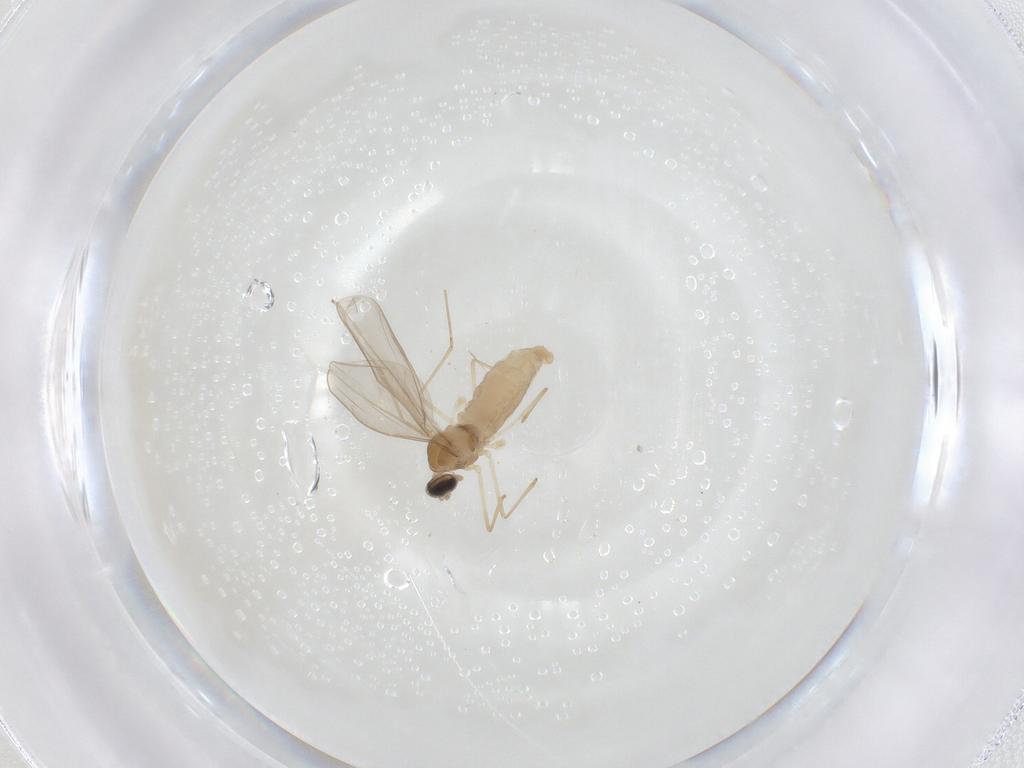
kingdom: Animalia
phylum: Arthropoda
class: Insecta
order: Diptera
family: Cecidomyiidae
